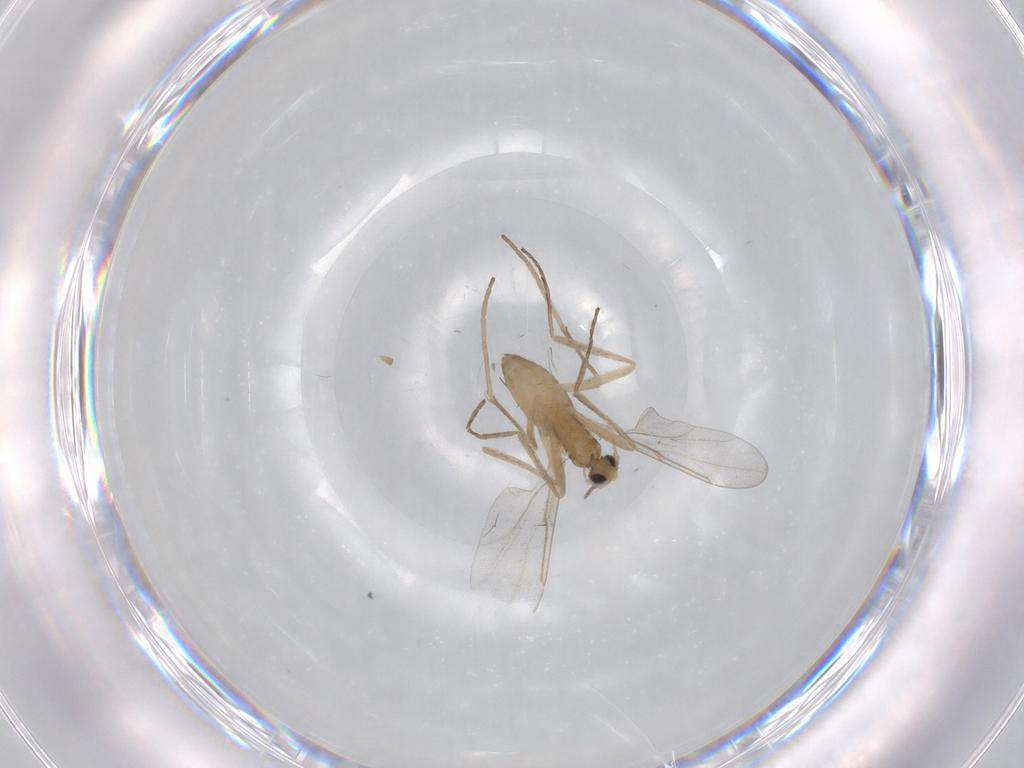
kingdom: Animalia
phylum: Arthropoda
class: Insecta
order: Diptera
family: Cecidomyiidae
